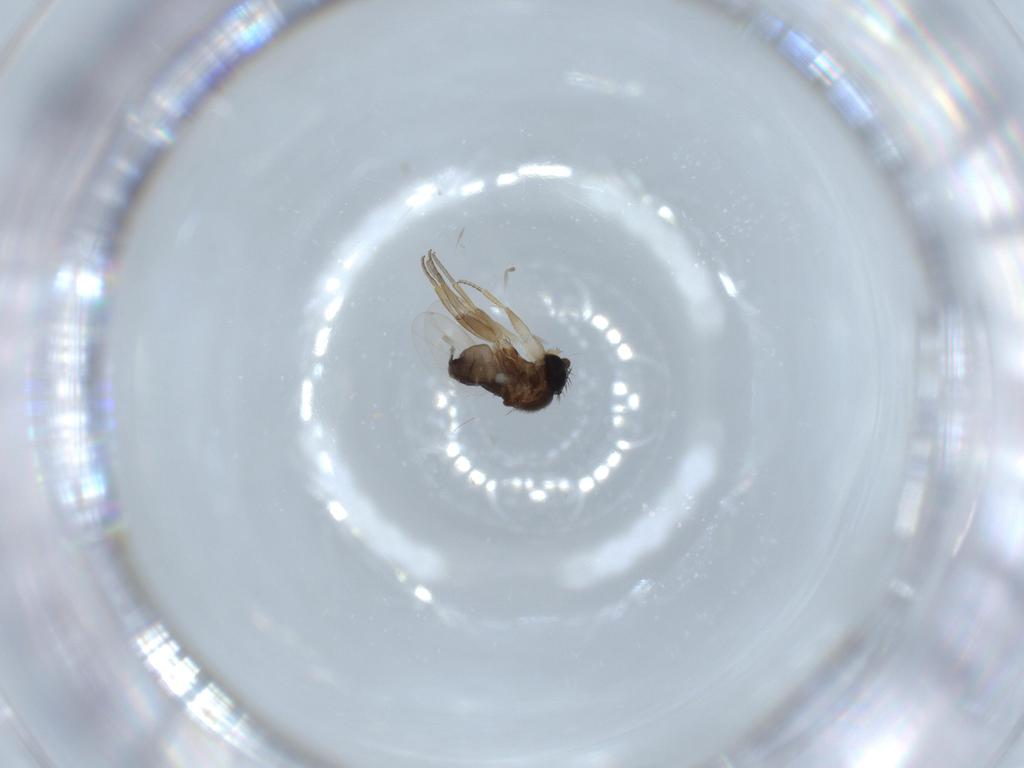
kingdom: Animalia
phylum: Arthropoda
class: Insecta
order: Diptera
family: Phoridae
